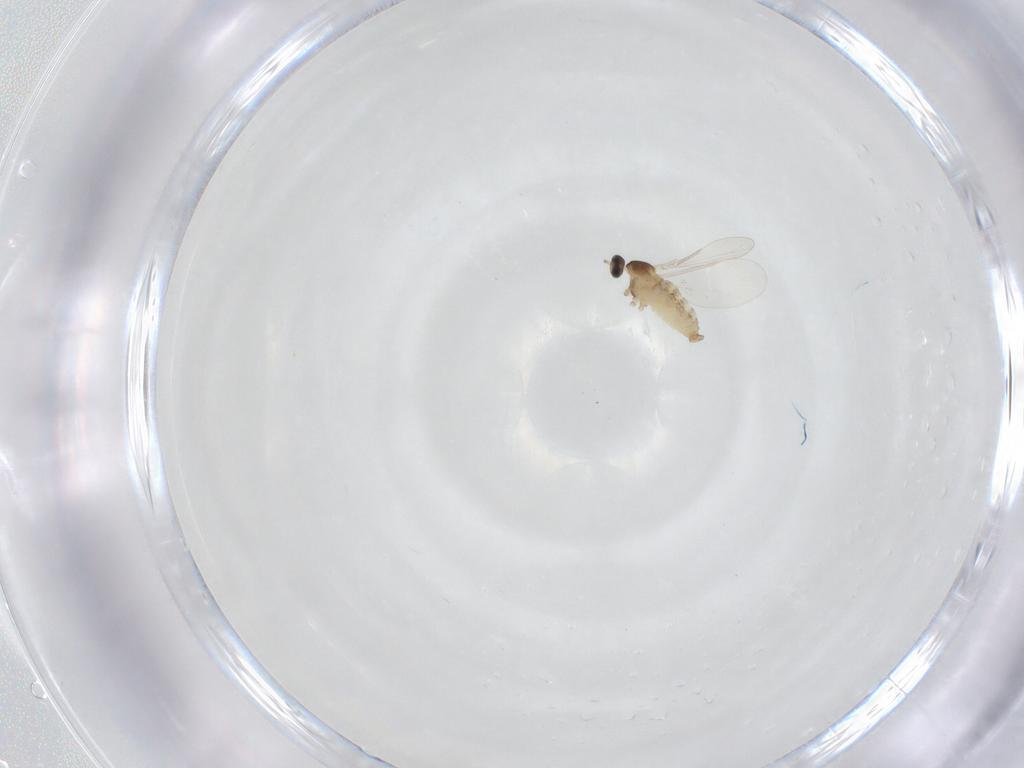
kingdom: Animalia
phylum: Arthropoda
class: Insecta
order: Diptera
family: Cecidomyiidae
